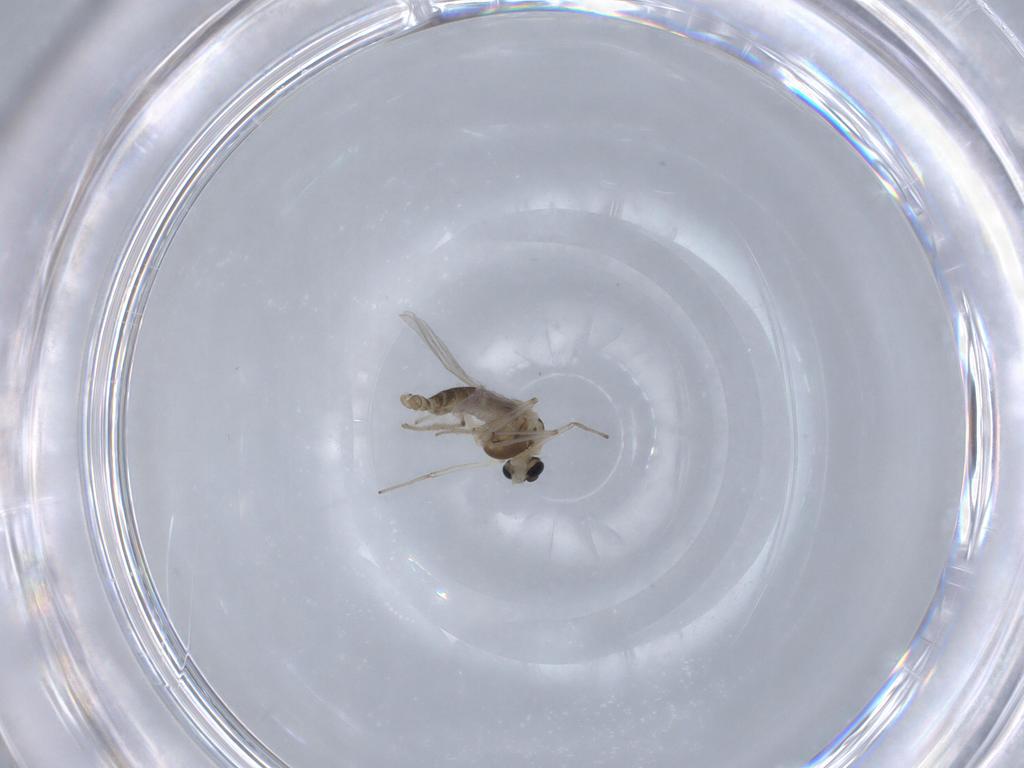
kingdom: Animalia
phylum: Arthropoda
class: Insecta
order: Diptera
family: Chironomidae
